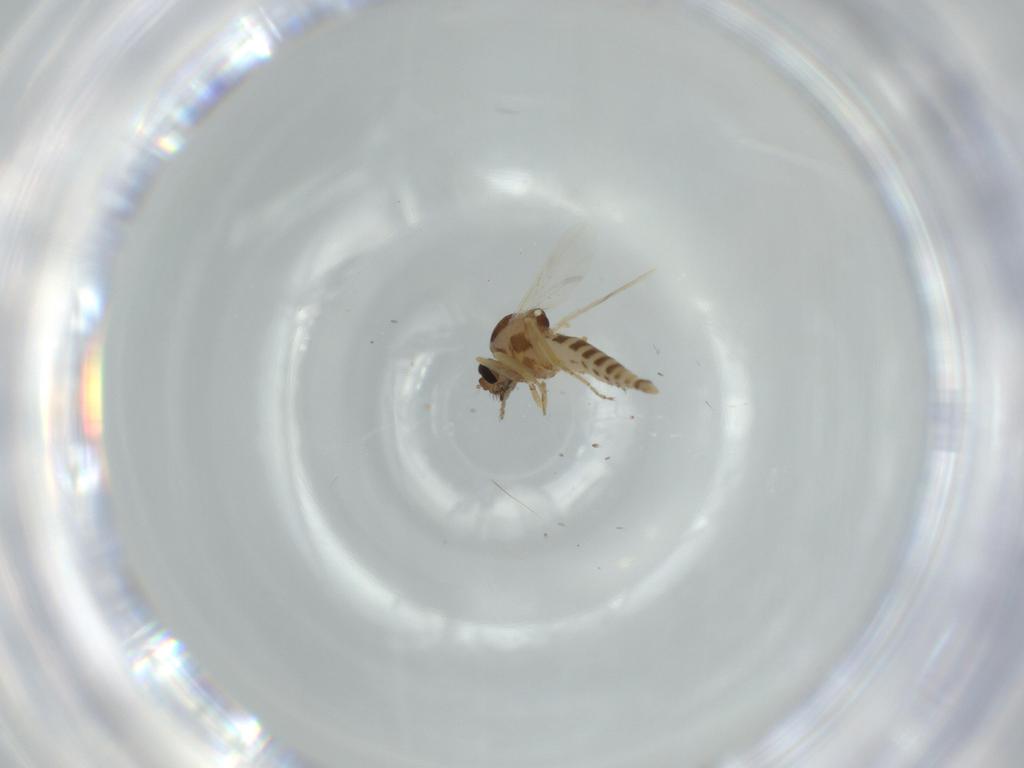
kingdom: Animalia
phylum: Arthropoda
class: Insecta
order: Diptera
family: Ceratopogonidae
